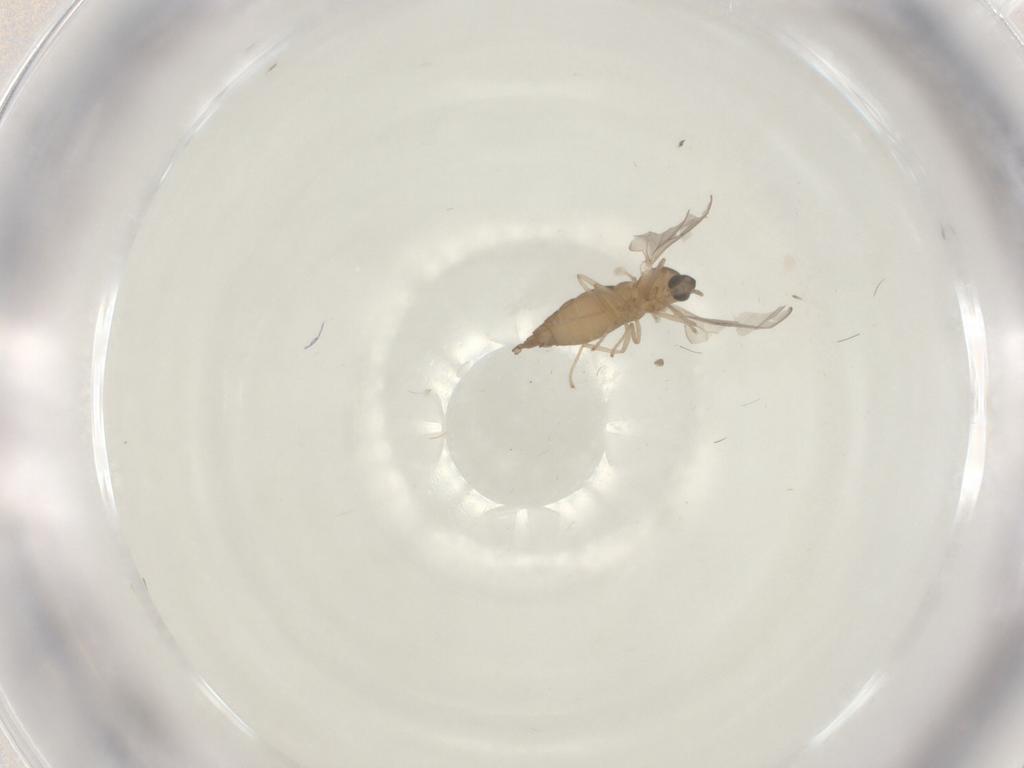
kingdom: Animalia
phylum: Arthropoda
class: Insecta
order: Diptera
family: Cecidomyiidae
